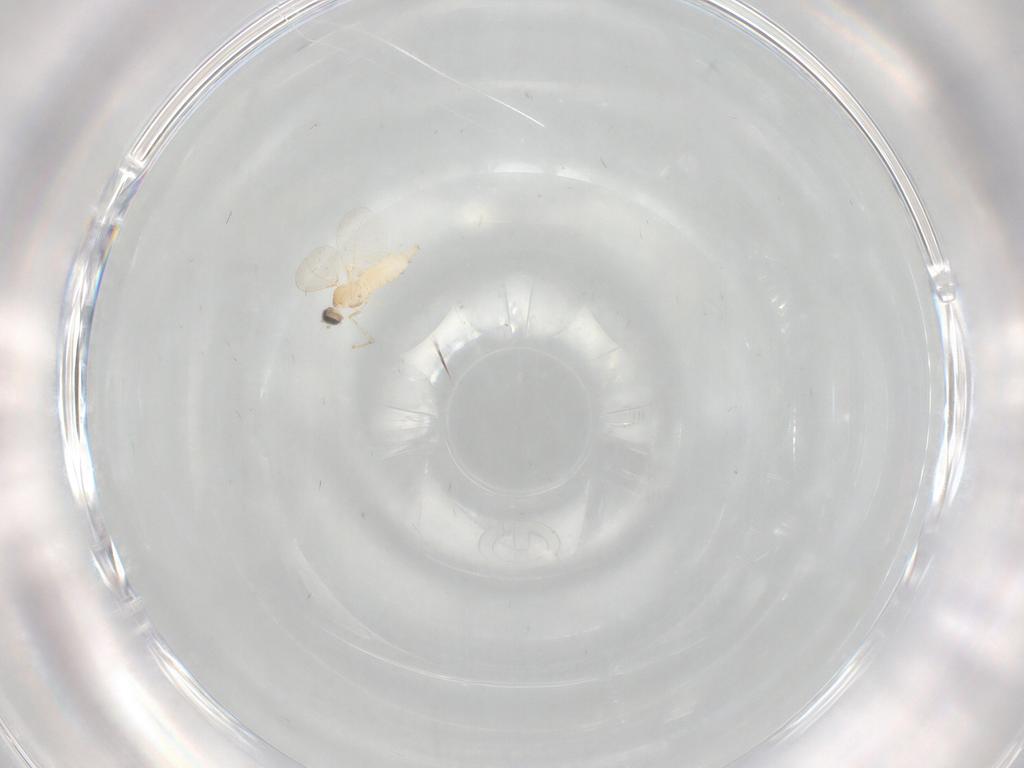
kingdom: Animalia
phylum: Arthropoda
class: Insecta
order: Diptera
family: Cecidomyiidae
